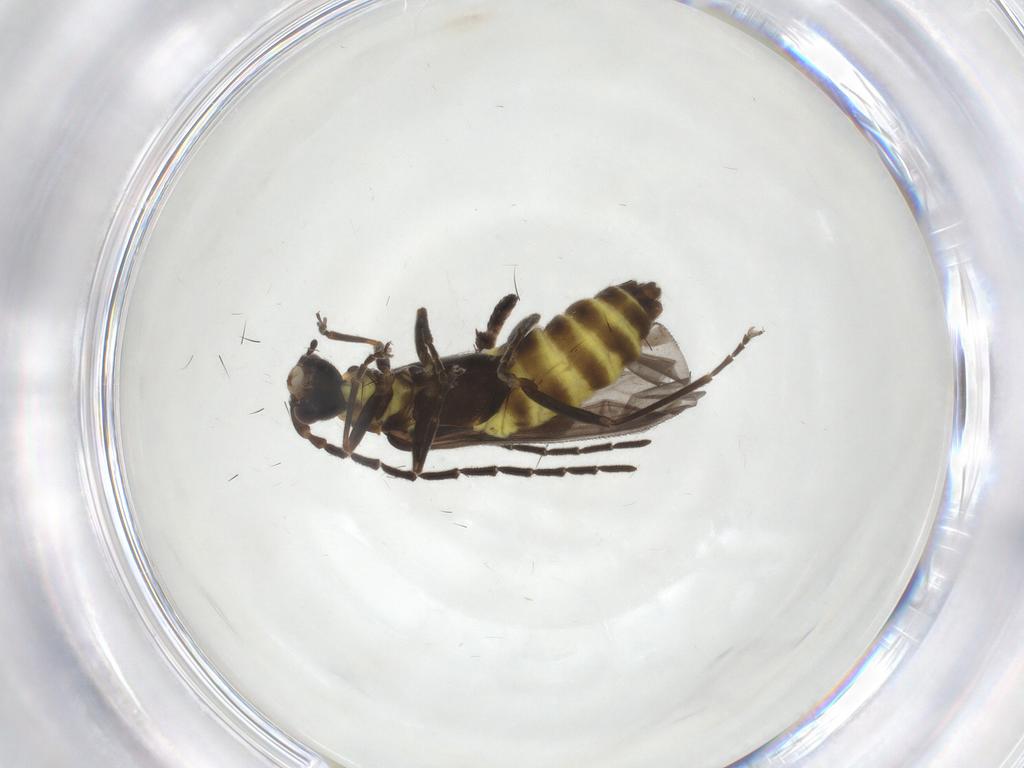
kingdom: Animalia
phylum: Arthropoda
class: Insecta
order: Coleoptera
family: Cantharidae
